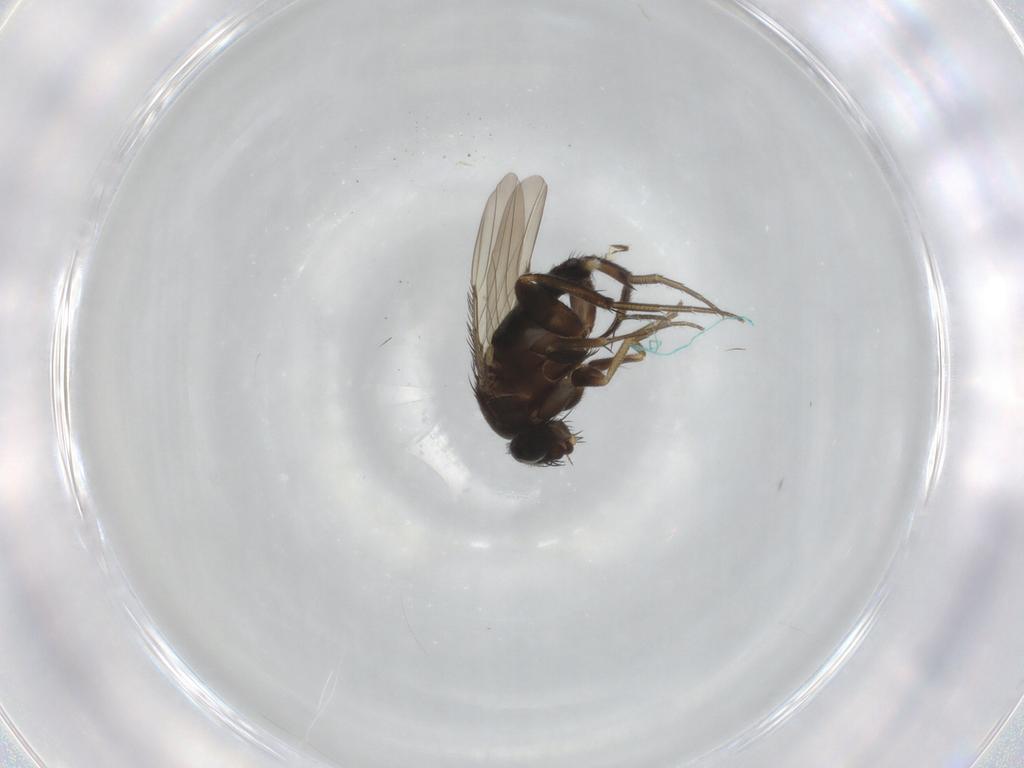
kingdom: Animalia
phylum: Arthropoda
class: Insecta
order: Diptera
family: Phoridae
